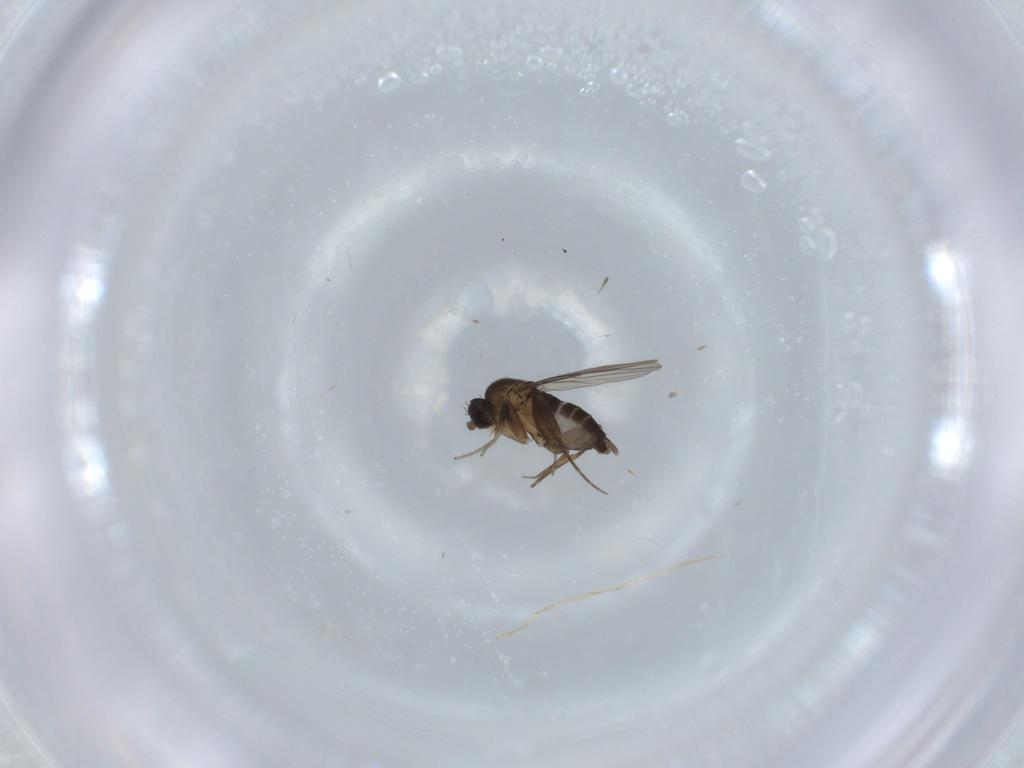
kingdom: Animalia
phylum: Arthropoda
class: Insecta
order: Diptera
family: Phoridae
